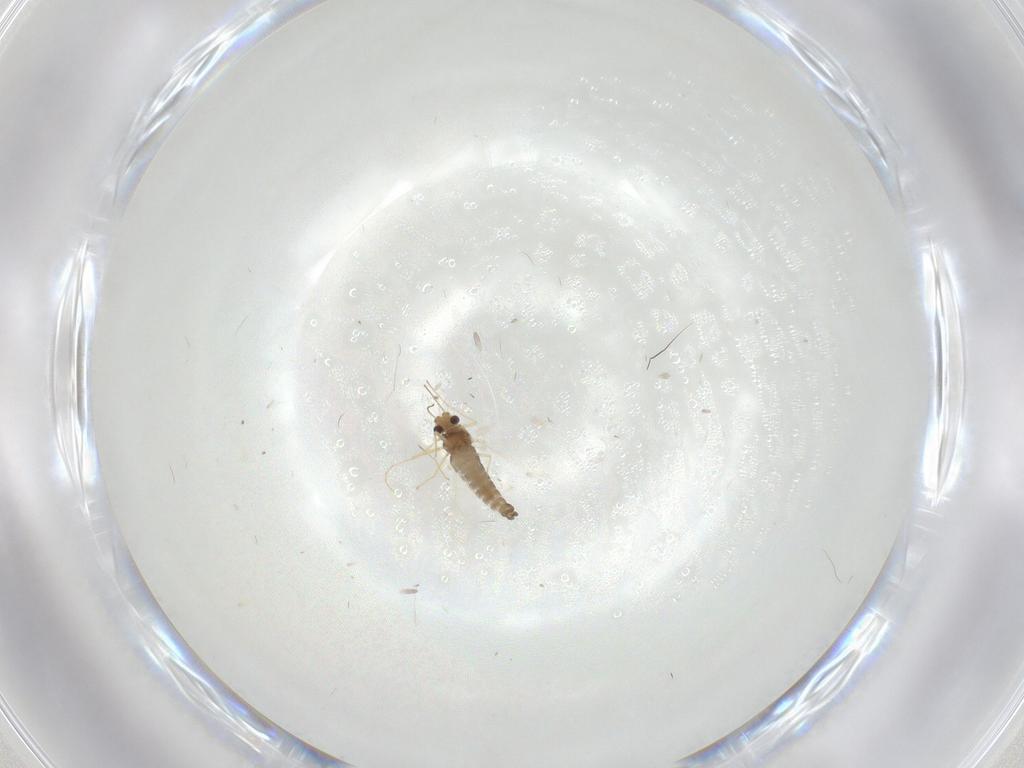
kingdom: Animalia
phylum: Arthropoda
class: Insecta
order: Diptera
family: Chironomidae
